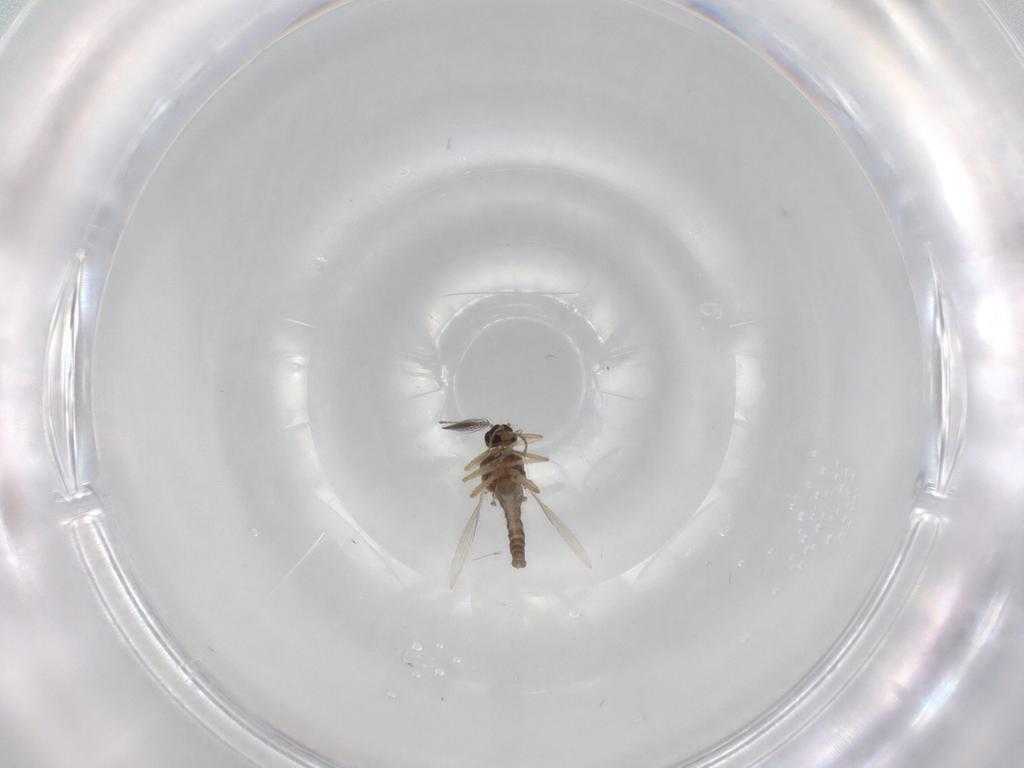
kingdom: Animalia
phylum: Arthropoda
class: Insecta
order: Diptera
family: Ceratopogonidae
